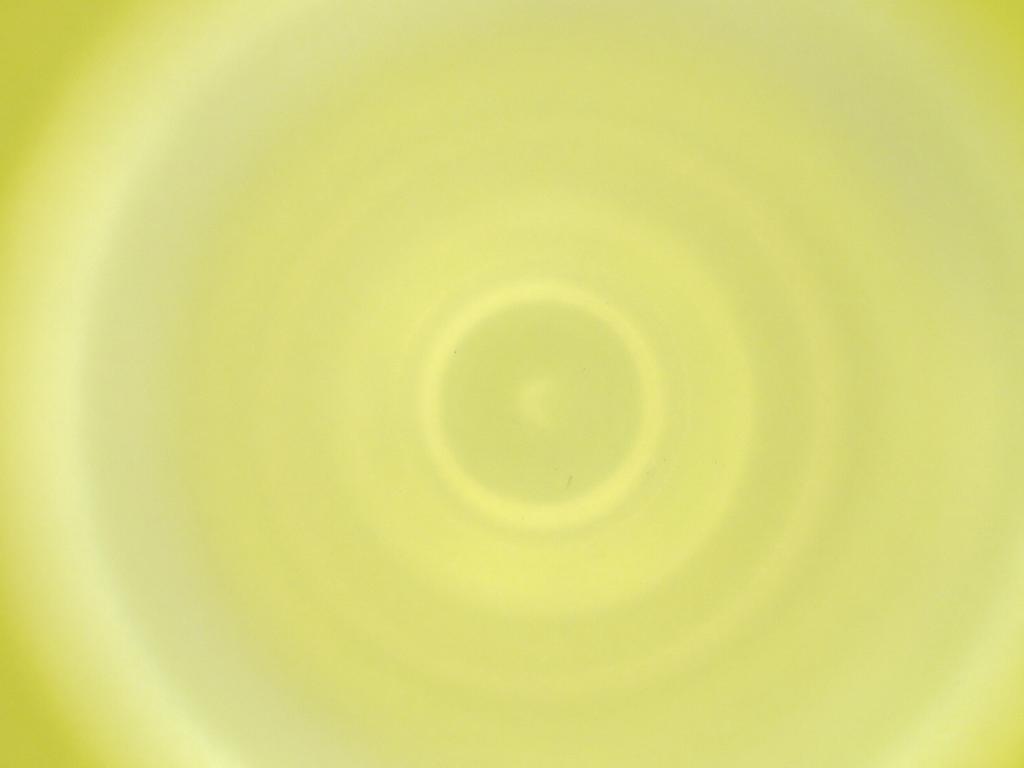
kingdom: Animalia
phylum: Arthropoda
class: Insecta
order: Diptera
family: Cecidomyiidae
